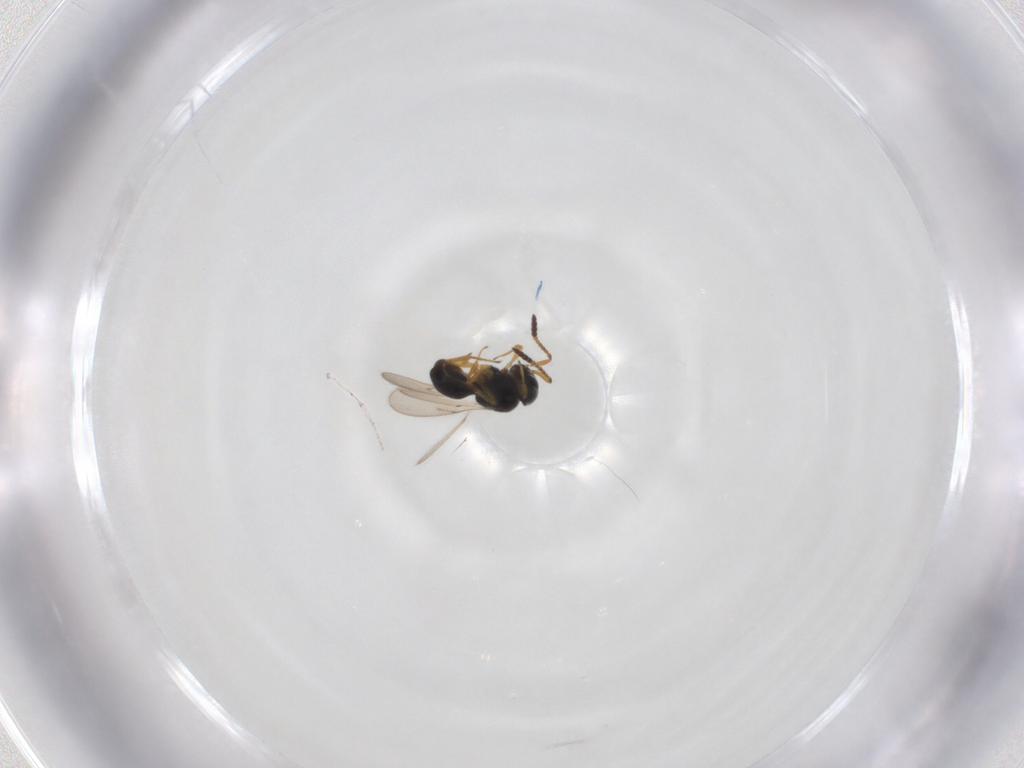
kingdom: Animalia
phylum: Arthropoda
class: Insecta
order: Hymenoptera
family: Scelionidae
